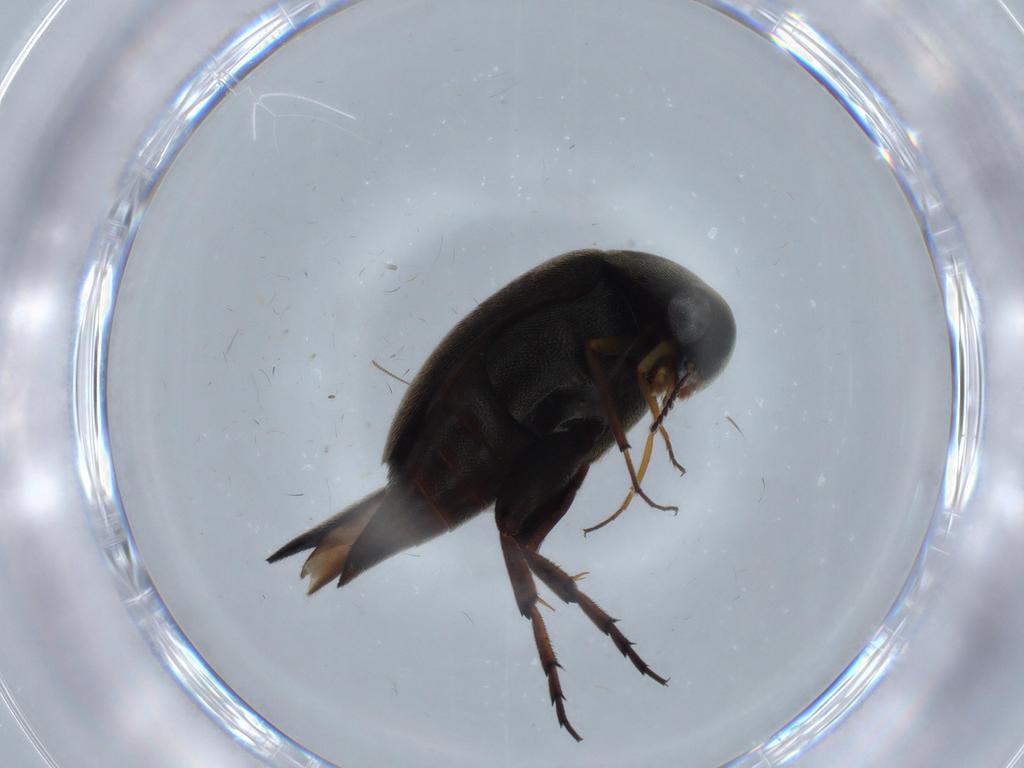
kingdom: Animalia
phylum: Arthropoda
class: Insecta
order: Coleoptera
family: Mordellidae
